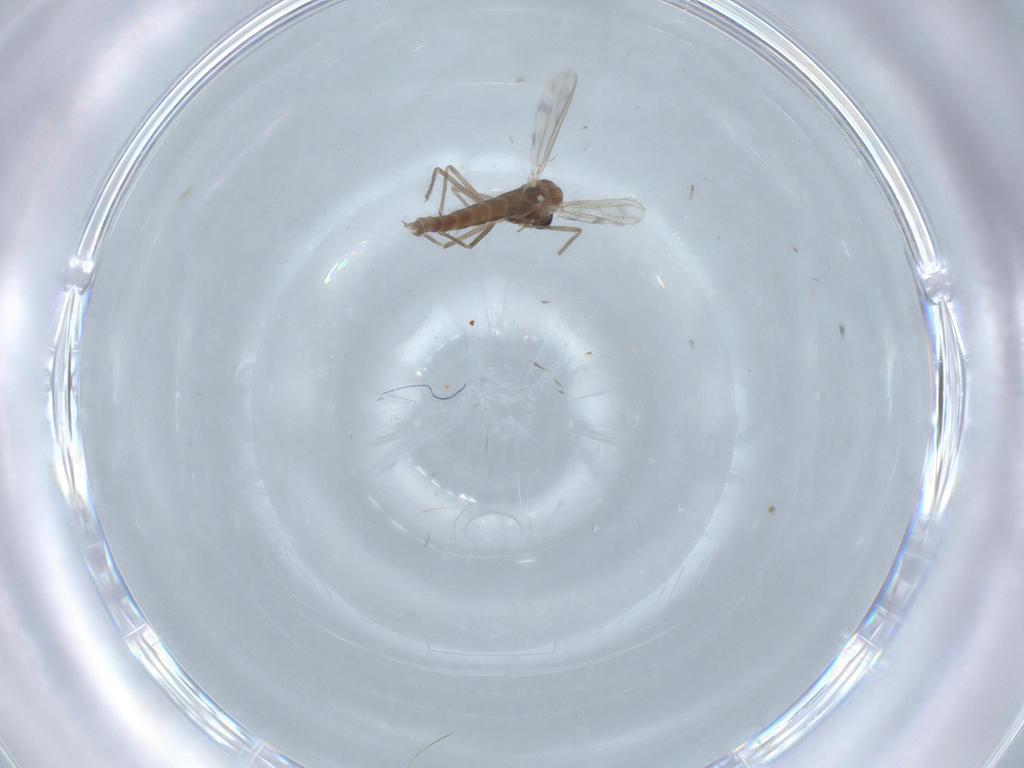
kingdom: Animalia
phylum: Arthropoda
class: Insecta
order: Diptera
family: Chironomidae
